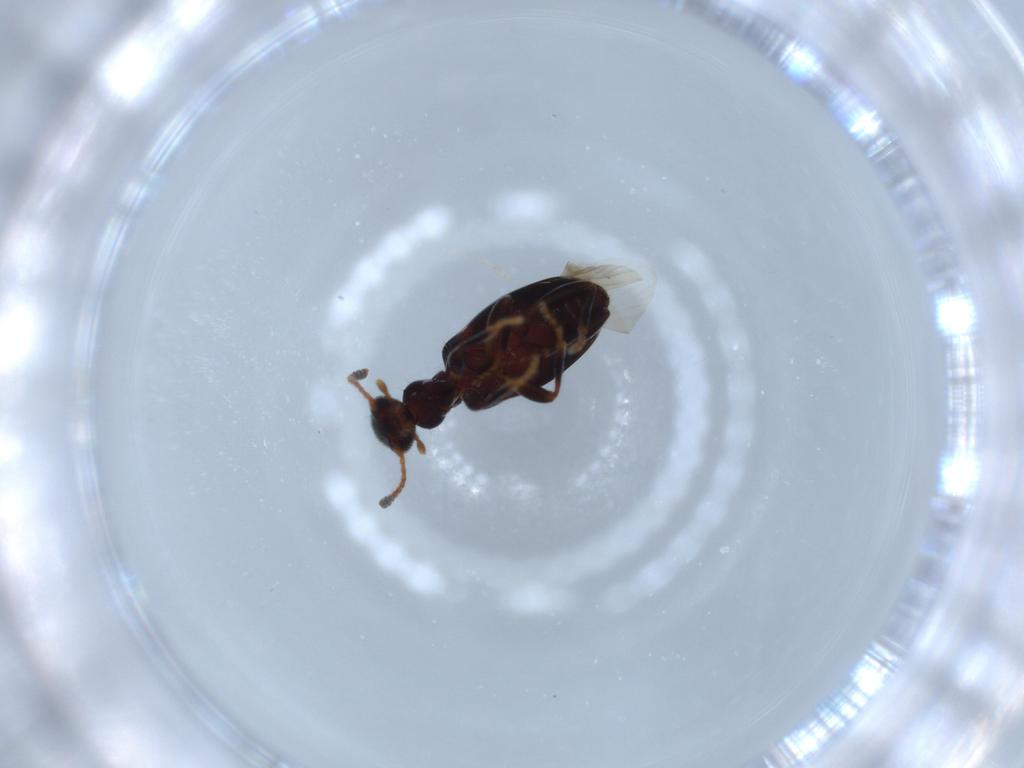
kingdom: Animalia
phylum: Arthropoda
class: Insecta
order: Coleoptera
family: Anthicidae
